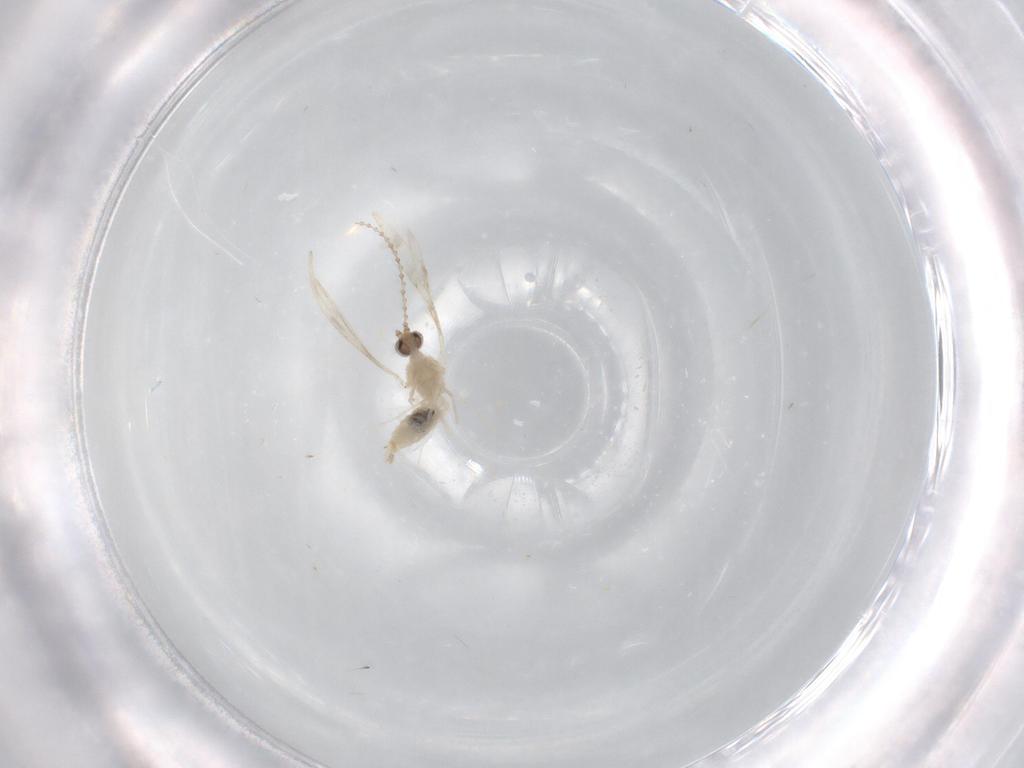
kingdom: Animalia
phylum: Arthropoda
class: Insecta
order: Diptera
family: Cecidomyiidae
